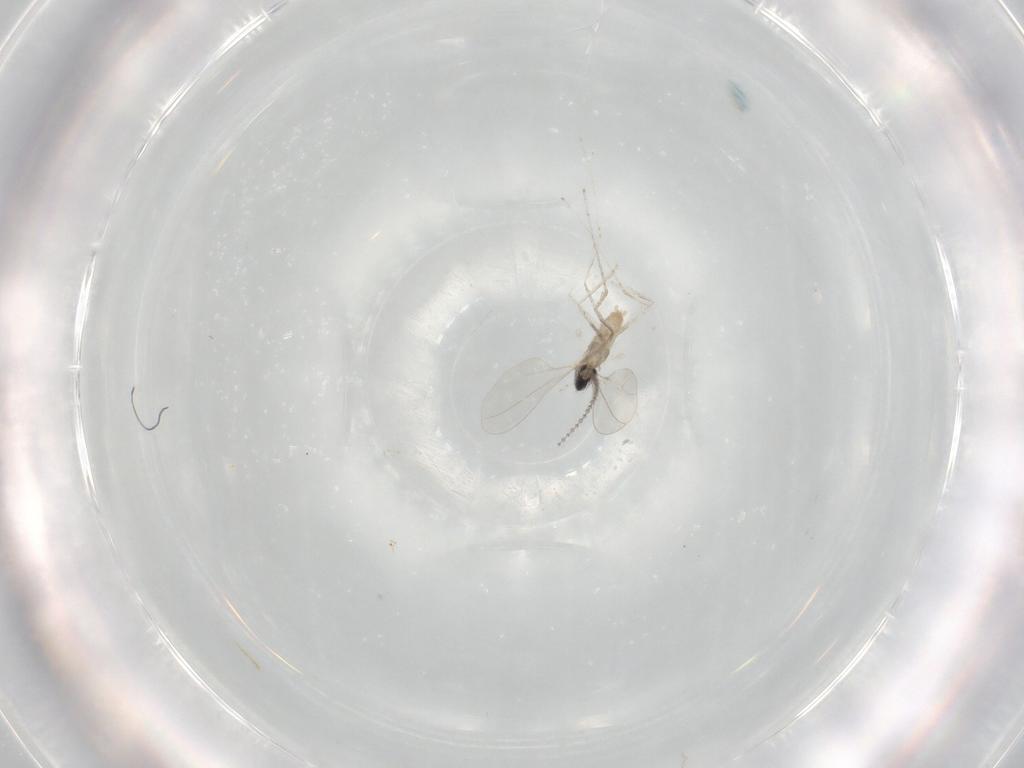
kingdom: Animalia
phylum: Arthropoda
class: Insecta
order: Diptera
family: Cecidomyiidae
